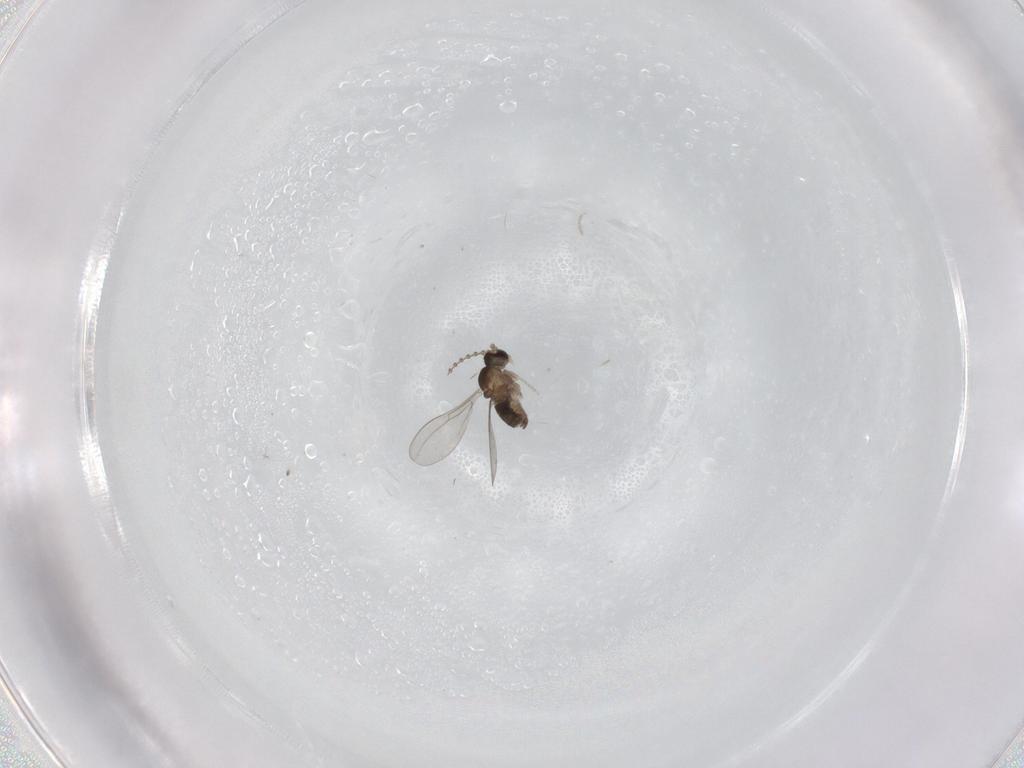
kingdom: Animalia
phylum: Arthropoda
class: Insecta
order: Diptera
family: Cecidomyiidae
